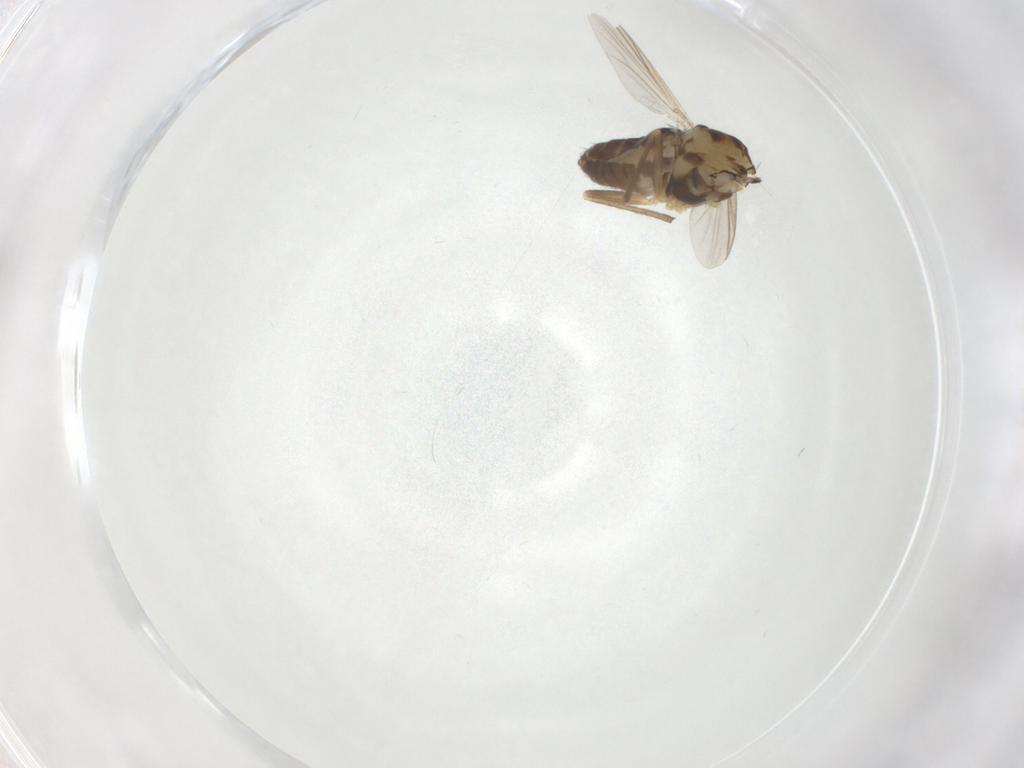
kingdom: Animalia
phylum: Arthropoda
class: Insecta
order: Diptera
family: Chironomidae
